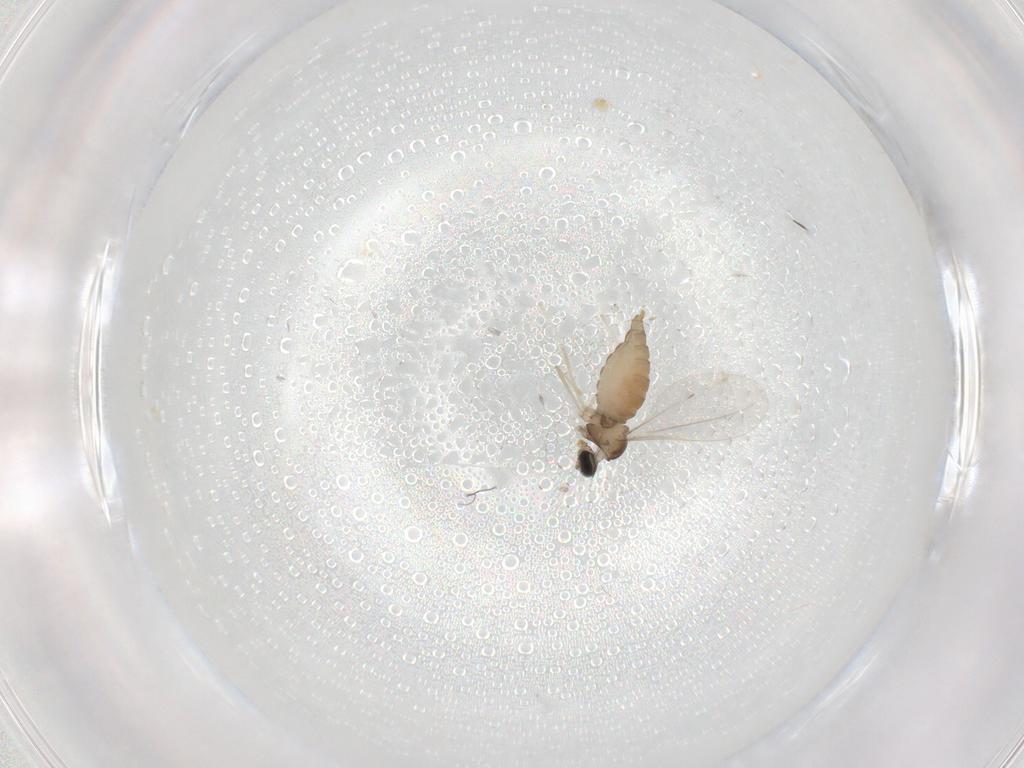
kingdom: Animalia
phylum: Arthropoda
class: Insecta
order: Diptera
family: Cecidomyiidae
